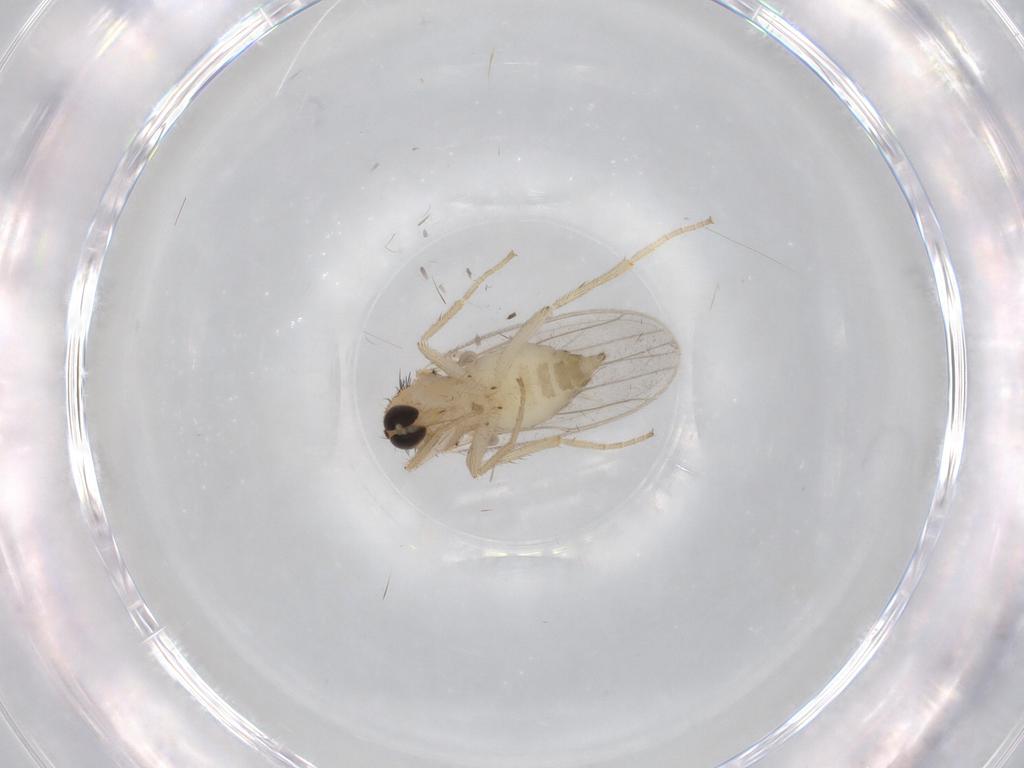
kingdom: Animalia
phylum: Arthropoda
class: Insecta
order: Diptera
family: Hybotidae
